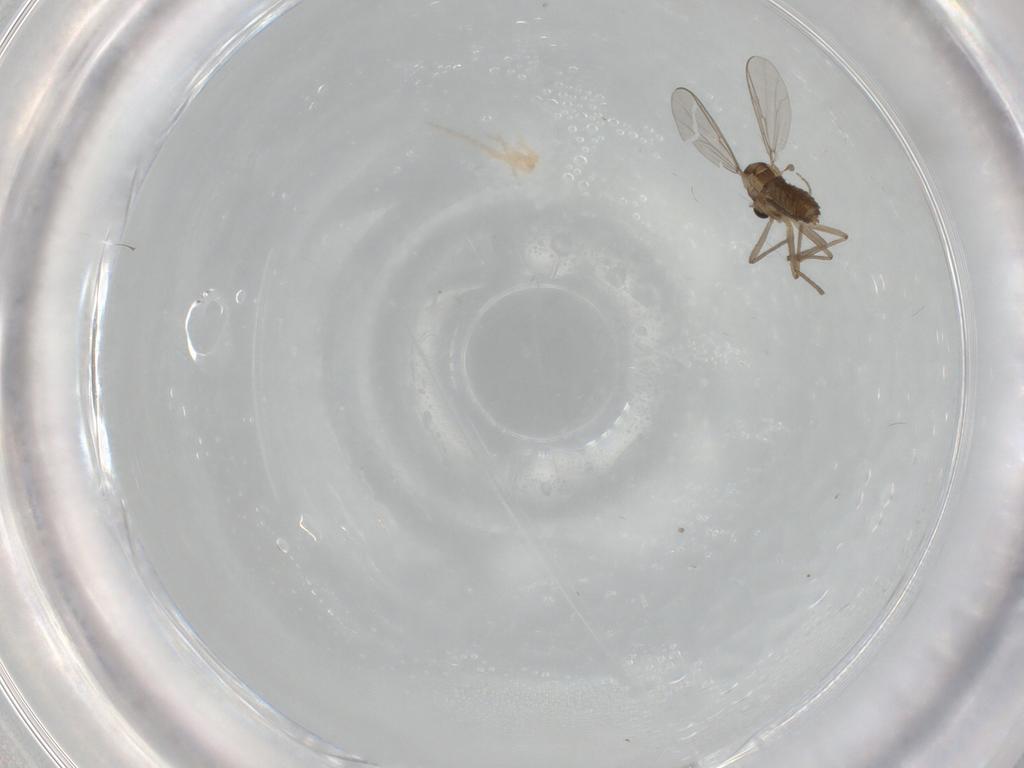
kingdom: Animalia
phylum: Arthropoda
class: Insecta
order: Diptera
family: Chironomidae
